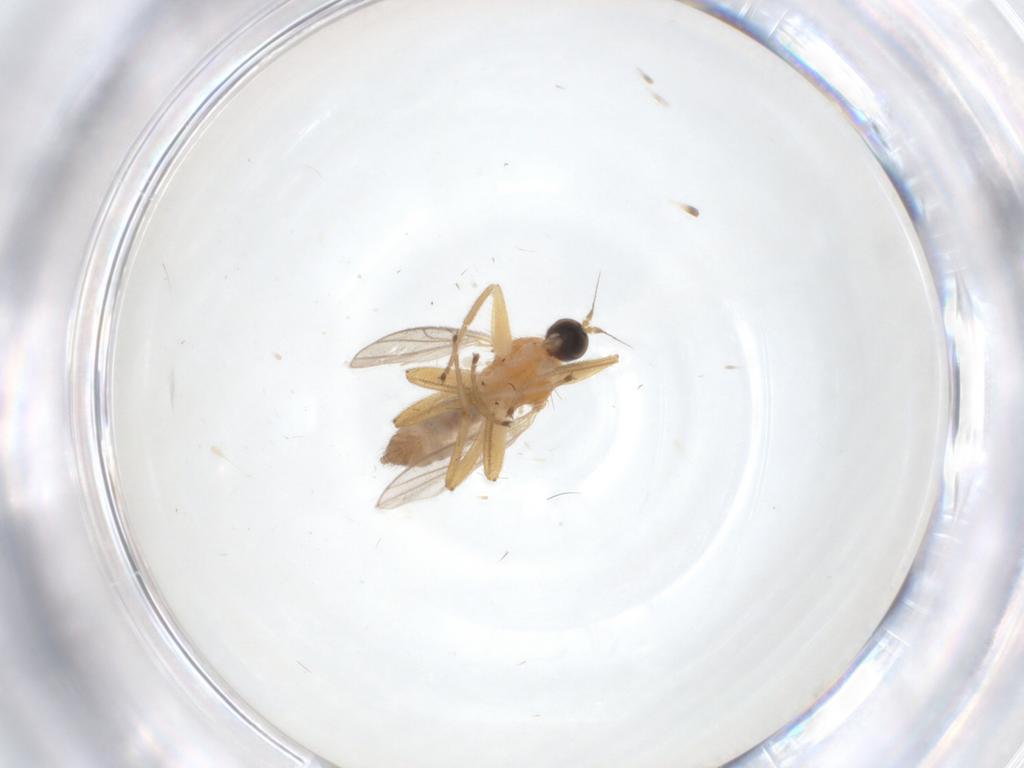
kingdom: Animalia
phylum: Arthropoda
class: Insecta
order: Diptera
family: Hybotidae
